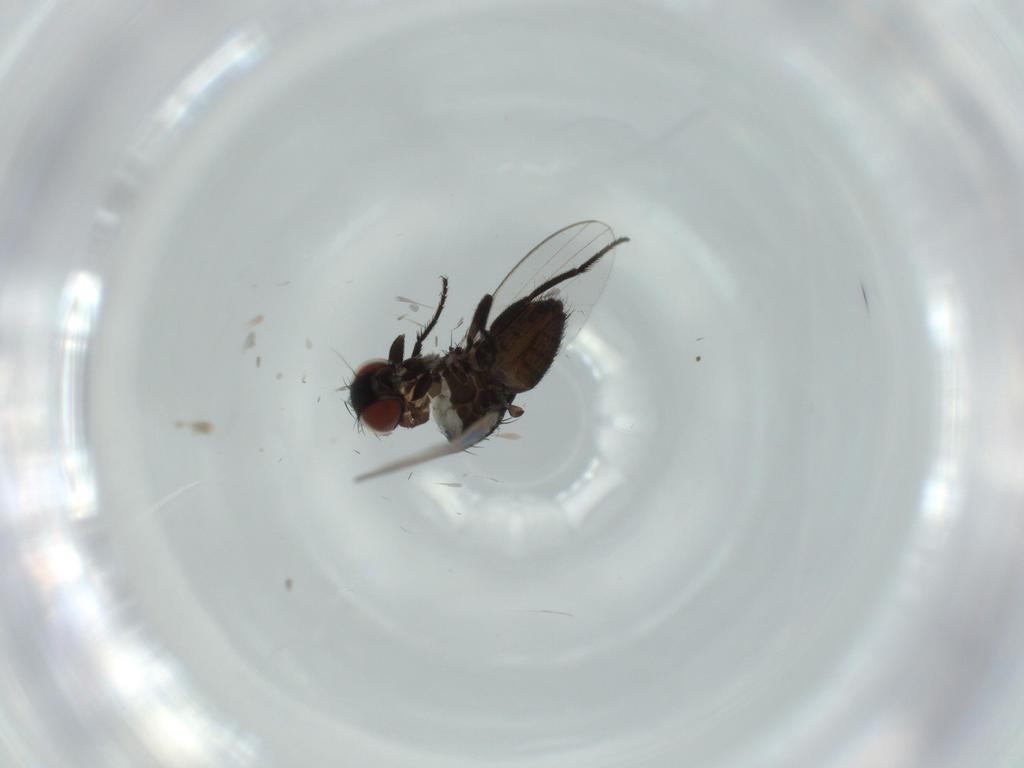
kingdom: Animalia
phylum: Arthropoda
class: Insecta
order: Diptera
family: Milichiidae
